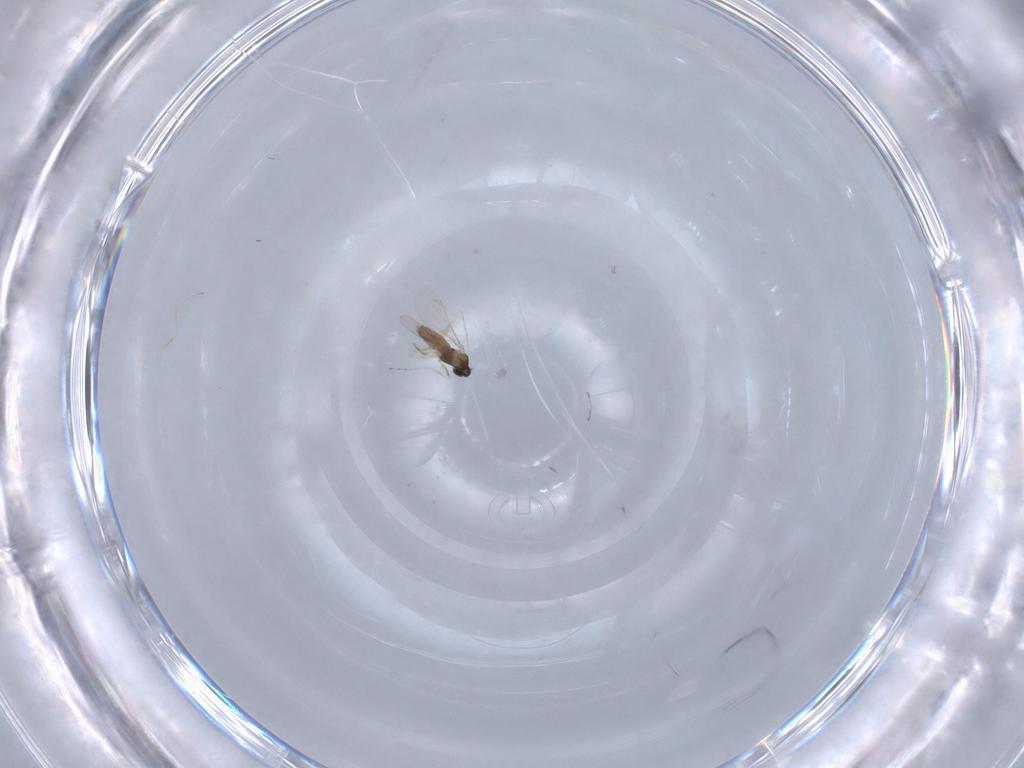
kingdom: Animalia
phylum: Arthropoda
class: Insecta
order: Diptera
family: Cecidomyiidae
